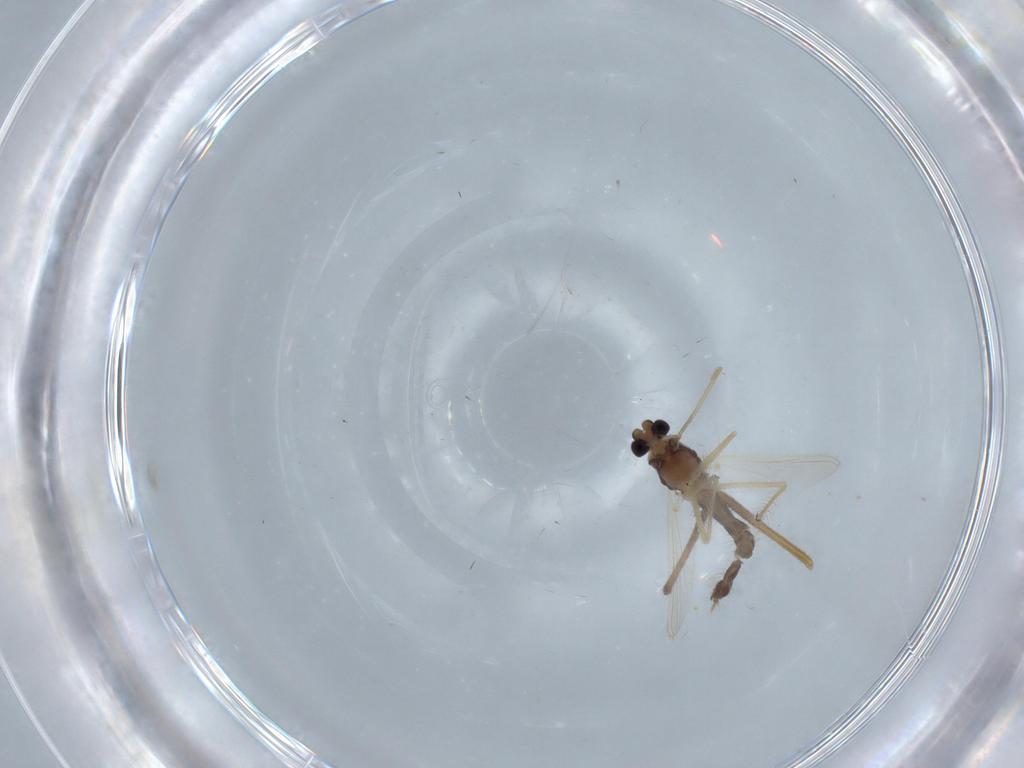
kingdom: Animalia
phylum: Arthropoda
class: Insecta
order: Diptera
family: Chironomidae
